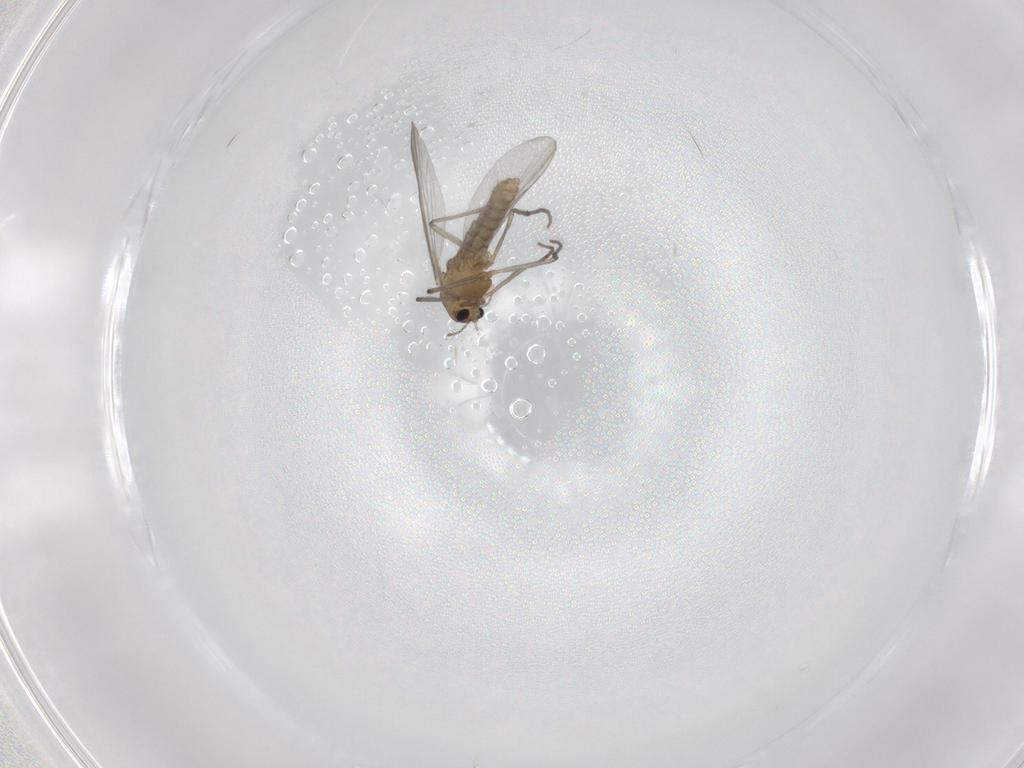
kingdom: Animalia
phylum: Arthropoda
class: Insecta
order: Diptera
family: Chironomidae
